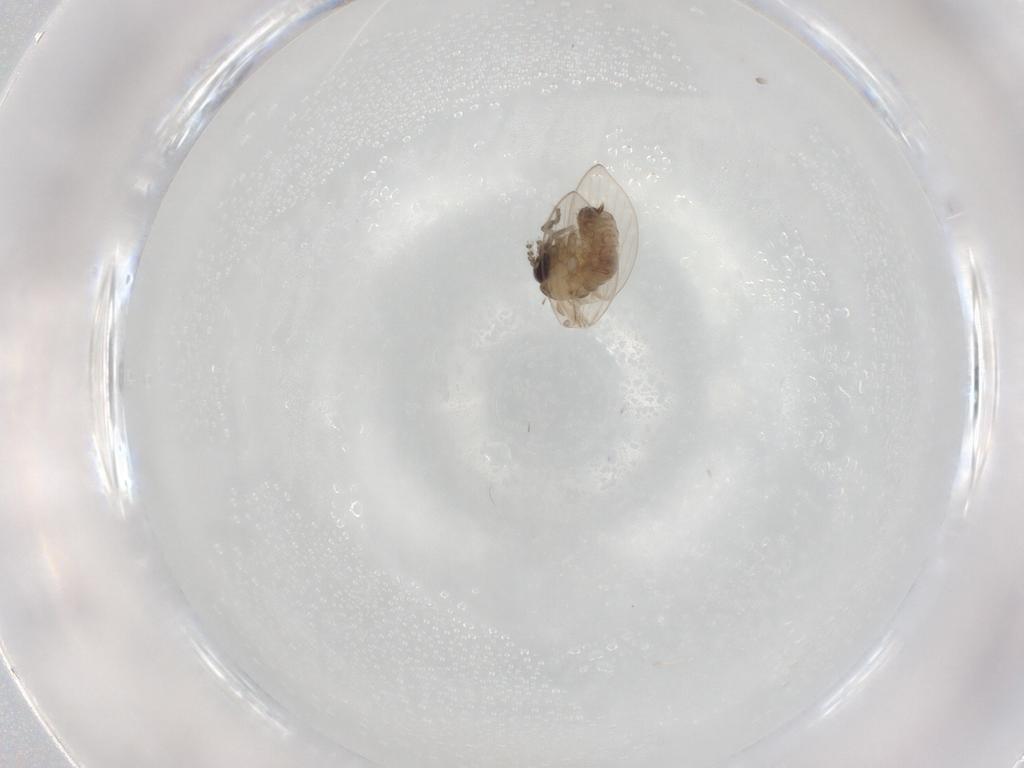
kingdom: Animalia
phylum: Arthropoda
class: Insecta
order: Diptera
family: Psychodidae
